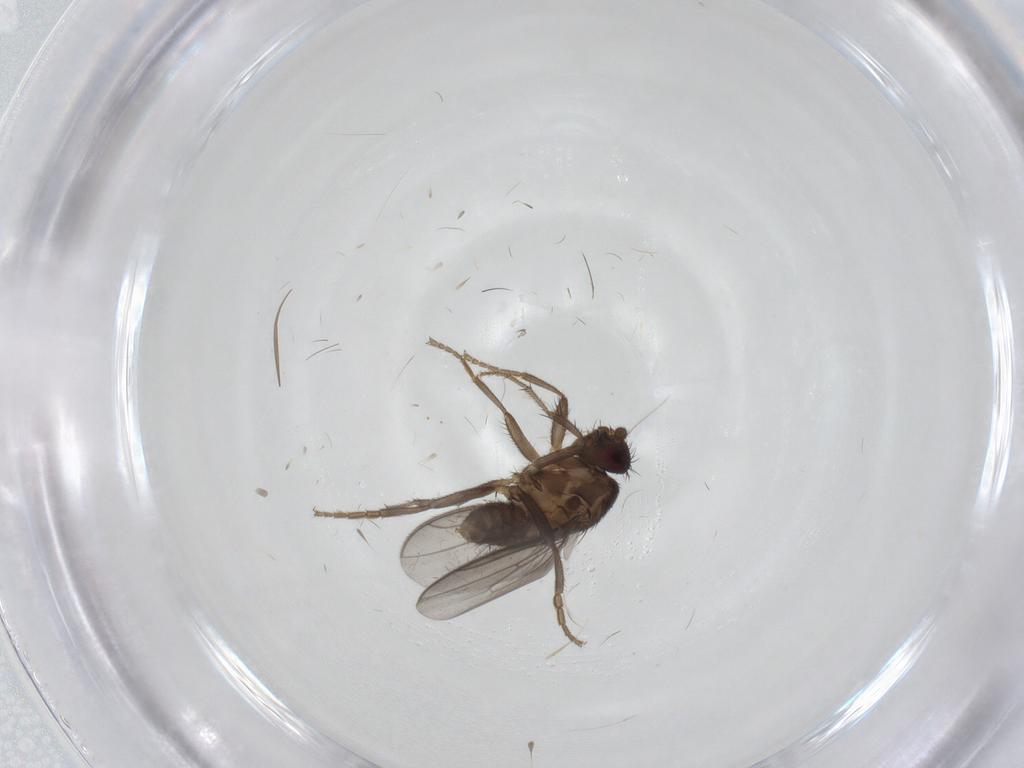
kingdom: Animalia
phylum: Arthropoda
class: Insecta
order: Diptera
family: Sphaeroceridae
